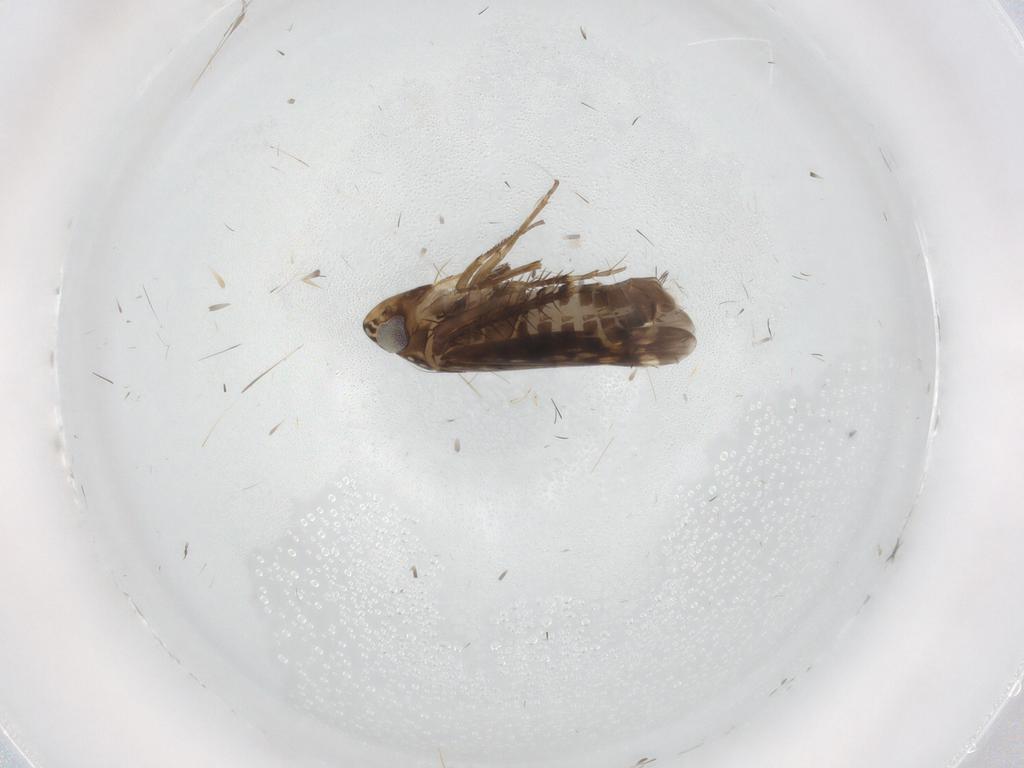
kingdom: Animalia
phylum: Arthropoda
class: Insecta
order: Hemiptera
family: Cicadellidae
